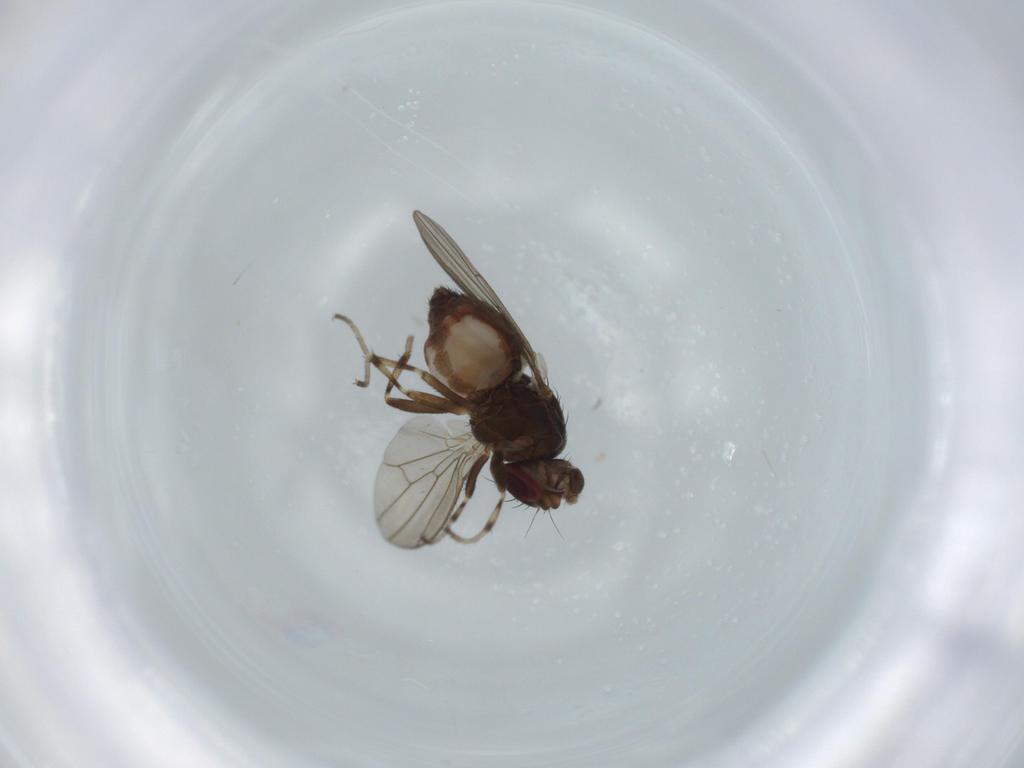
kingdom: Animalia
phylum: Arthropoda
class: Insecta
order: Diptera
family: Heleomyzidae
